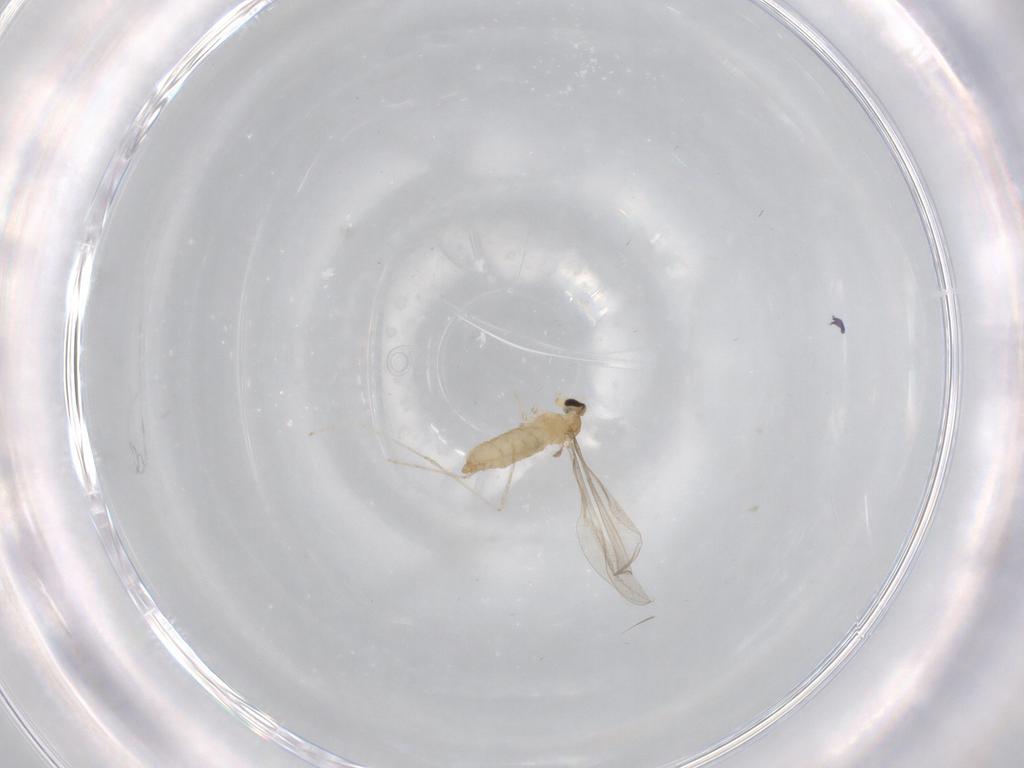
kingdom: Animalia
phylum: Arthropoda
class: Insecta
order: Diptera
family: Cecidomyiidae
